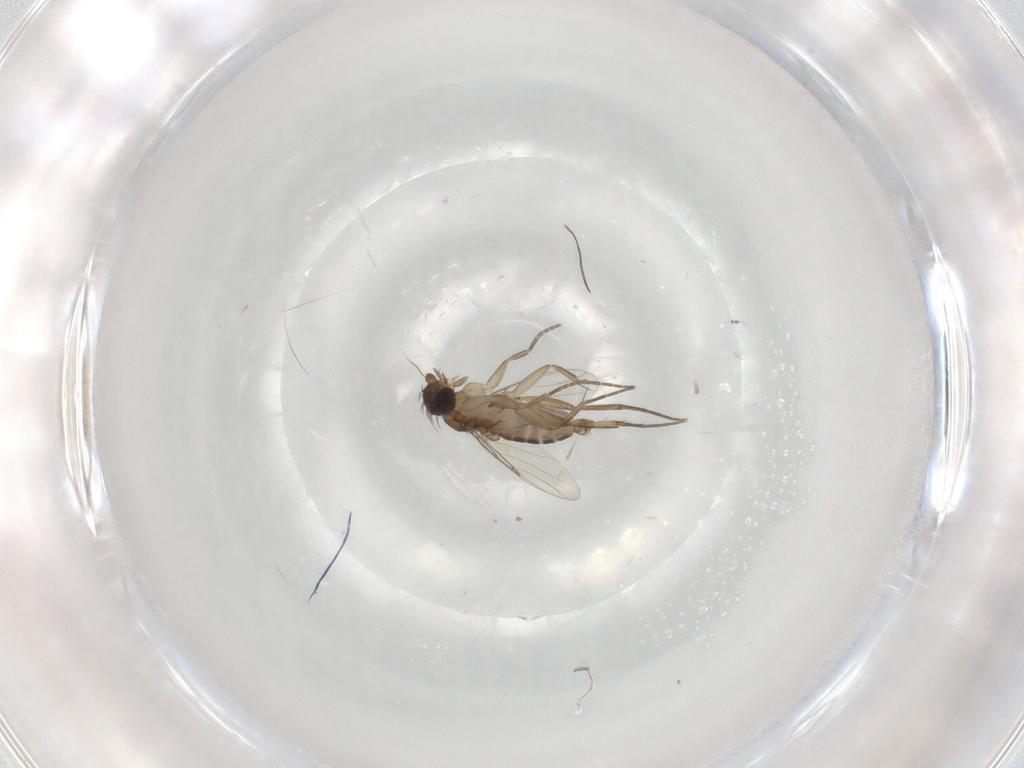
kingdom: Animalia
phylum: Arthropoda
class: Insecta
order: Diptera
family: Phoridae
